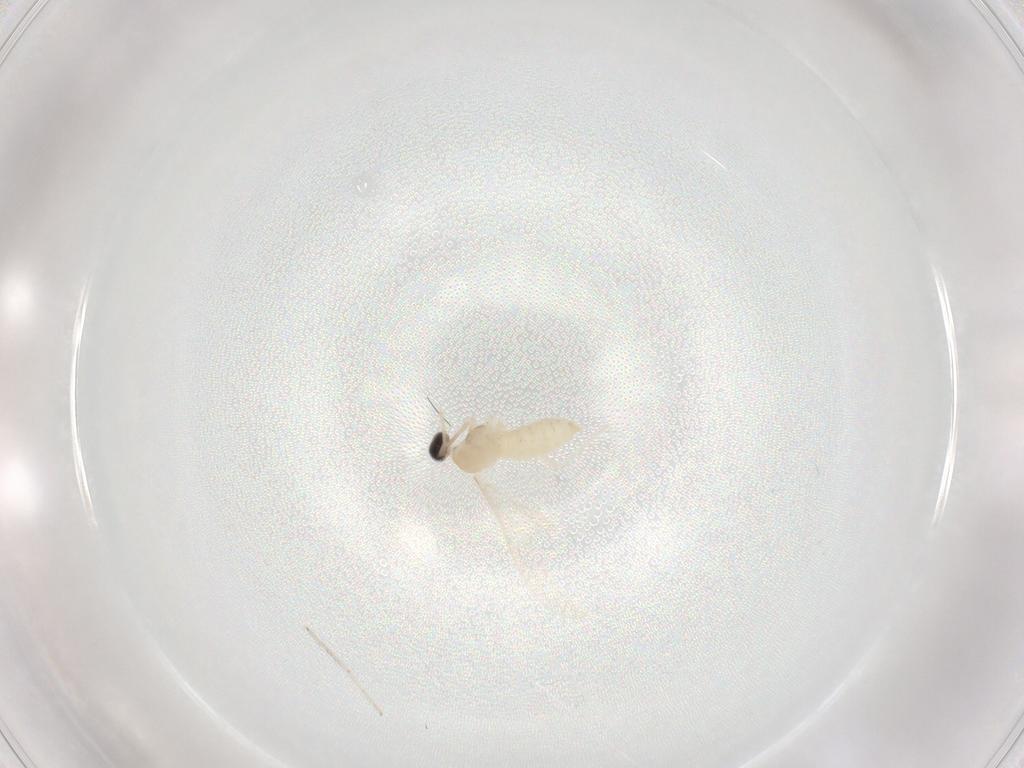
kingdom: Animalia
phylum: Arthropoda
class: Insecta
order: Diptera
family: Cecidomyiidae
